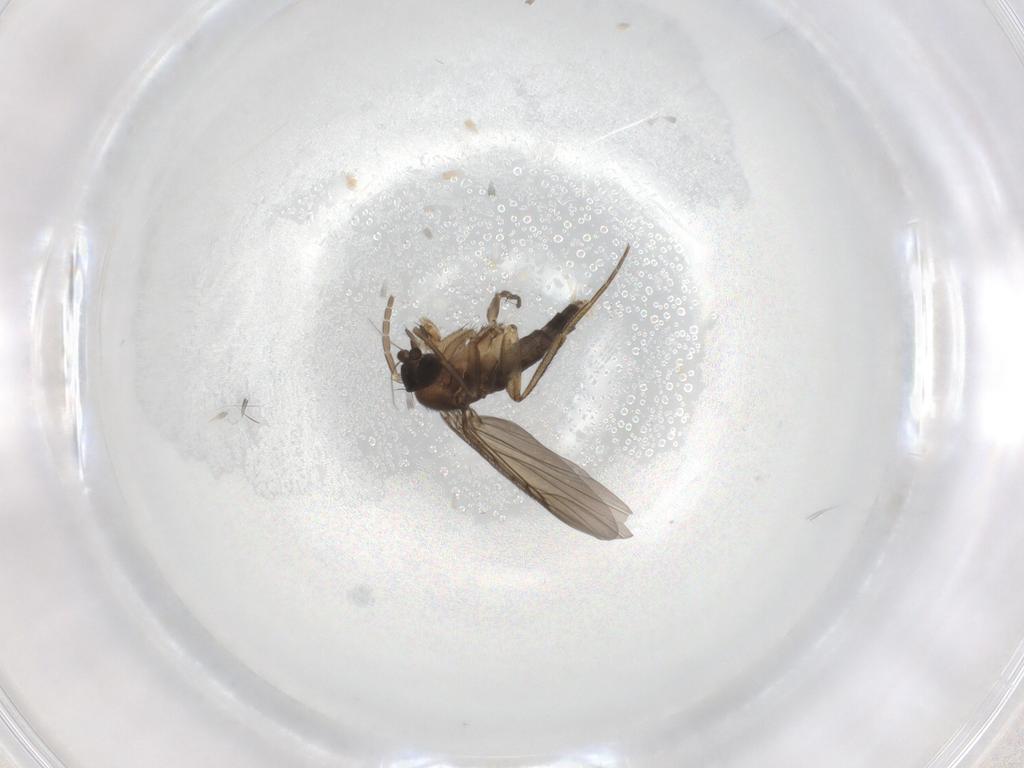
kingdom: Animalia
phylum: Arthropoda
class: Insecta
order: Diptera
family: Phoridae
